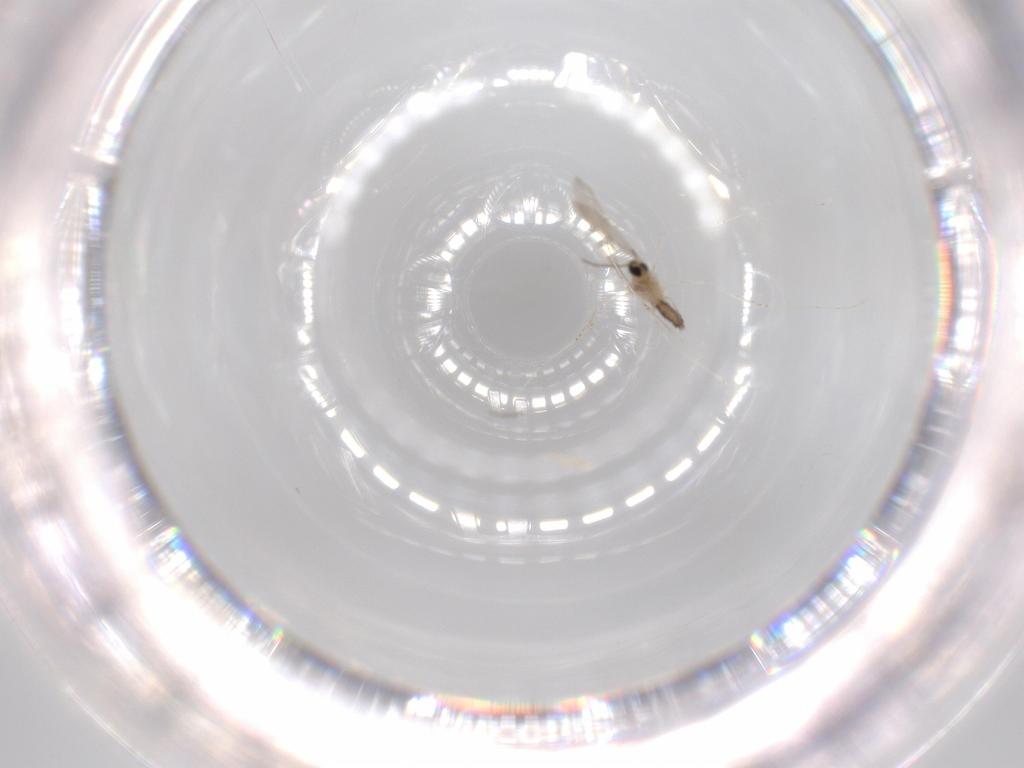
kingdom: Animalia
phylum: Arthropoda
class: Insecta
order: Diptera
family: Cecidomyiidae
